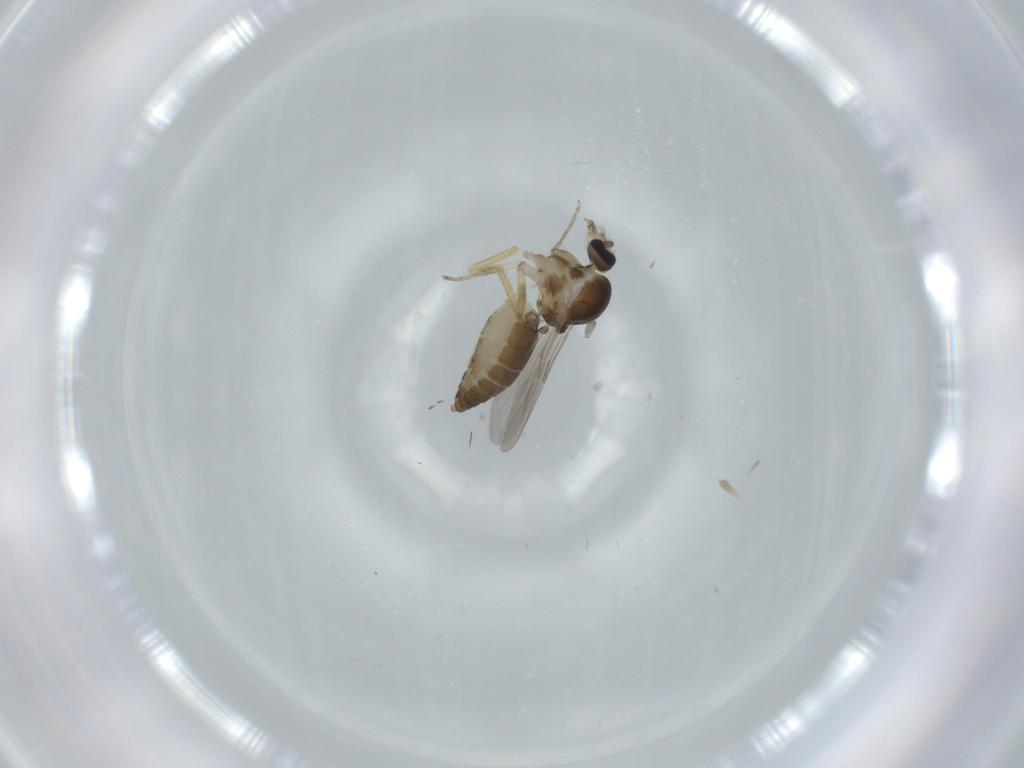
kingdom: Animalia
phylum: Arthropoda
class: Insecta
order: Diptera
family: Ceratopogonidae
